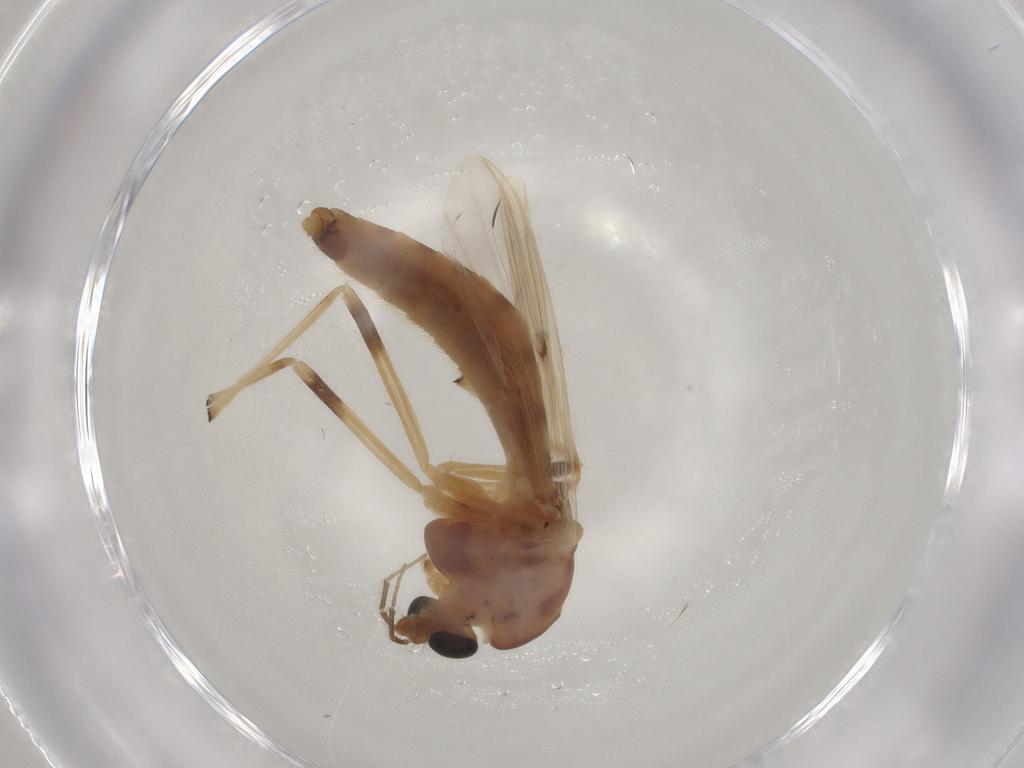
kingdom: Animalia
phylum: Arthropoda
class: Insecta
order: Diptera
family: Chironomidae
